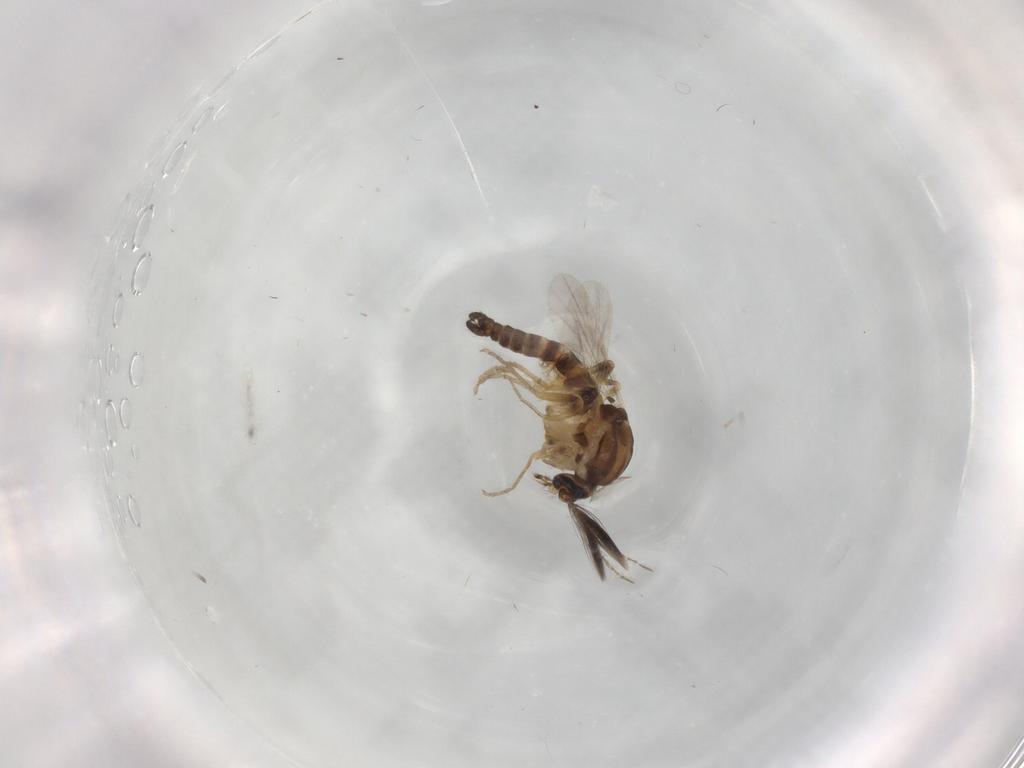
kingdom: Animalia
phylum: Arthropoda
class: Insecta
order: Diptera
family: Ceratopogonidae
